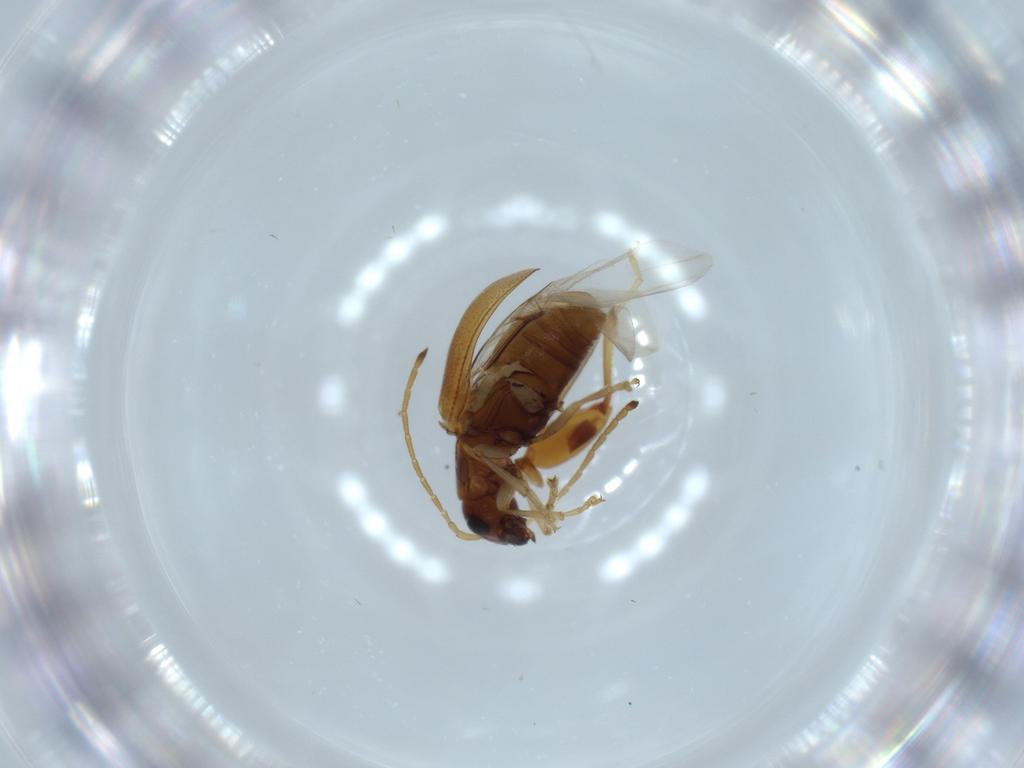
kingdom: Animalia
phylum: Arthropoda
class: Insecta
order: Coleoptera
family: Chrysomelidae
